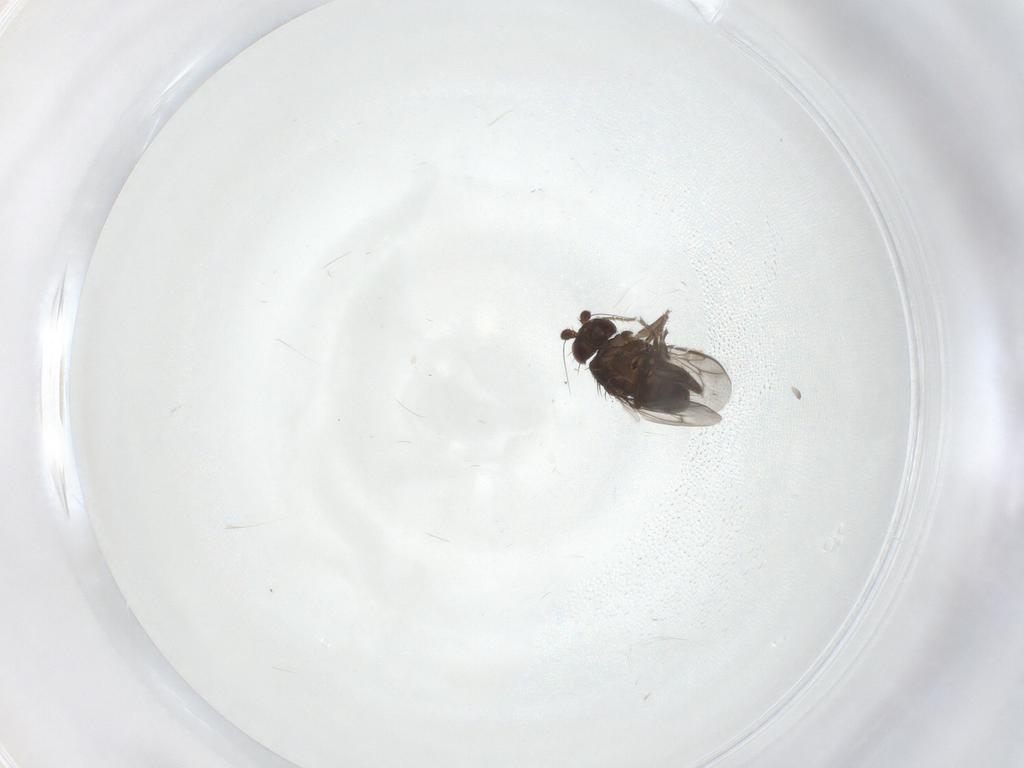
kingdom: Animalia
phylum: Arthropoda
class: Insecta
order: Diptera
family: Sphaeroceridae
